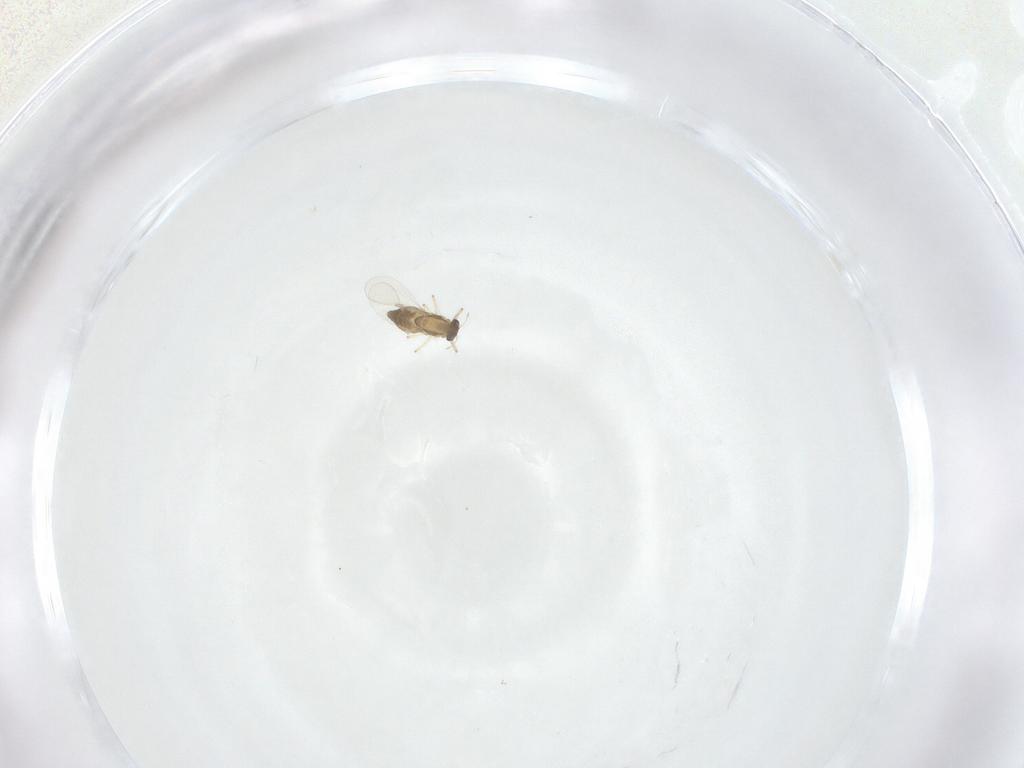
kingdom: Animalia
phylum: Arthropoda
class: Insecta
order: Diptera
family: Chironomidae
